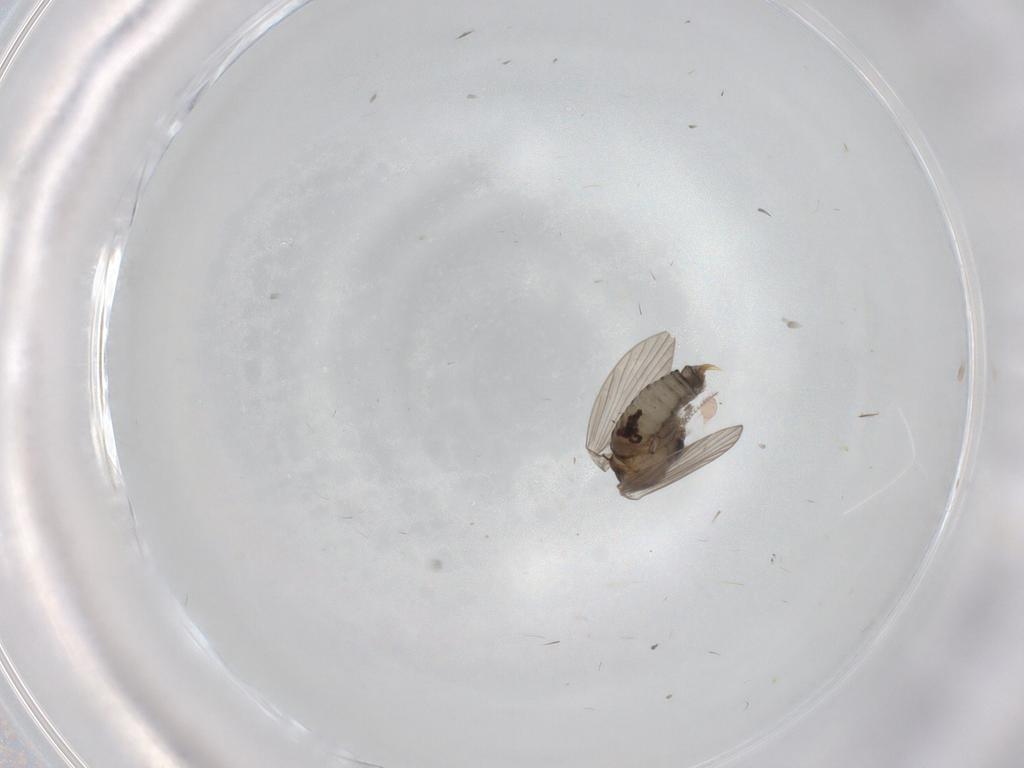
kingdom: Animalia
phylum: Arthropoda
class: Insecta
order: Diptera
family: Psychodidae
